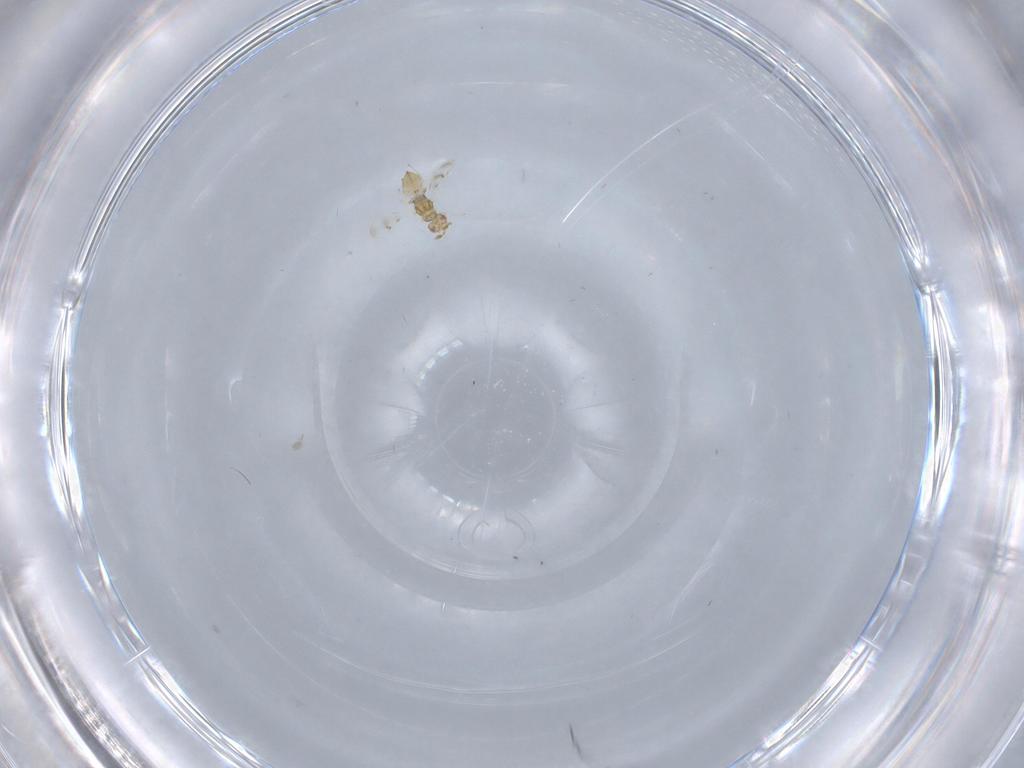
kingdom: Animalia
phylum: Arthropoda
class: Insecta
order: Hymenoptera
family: Eulophidae
